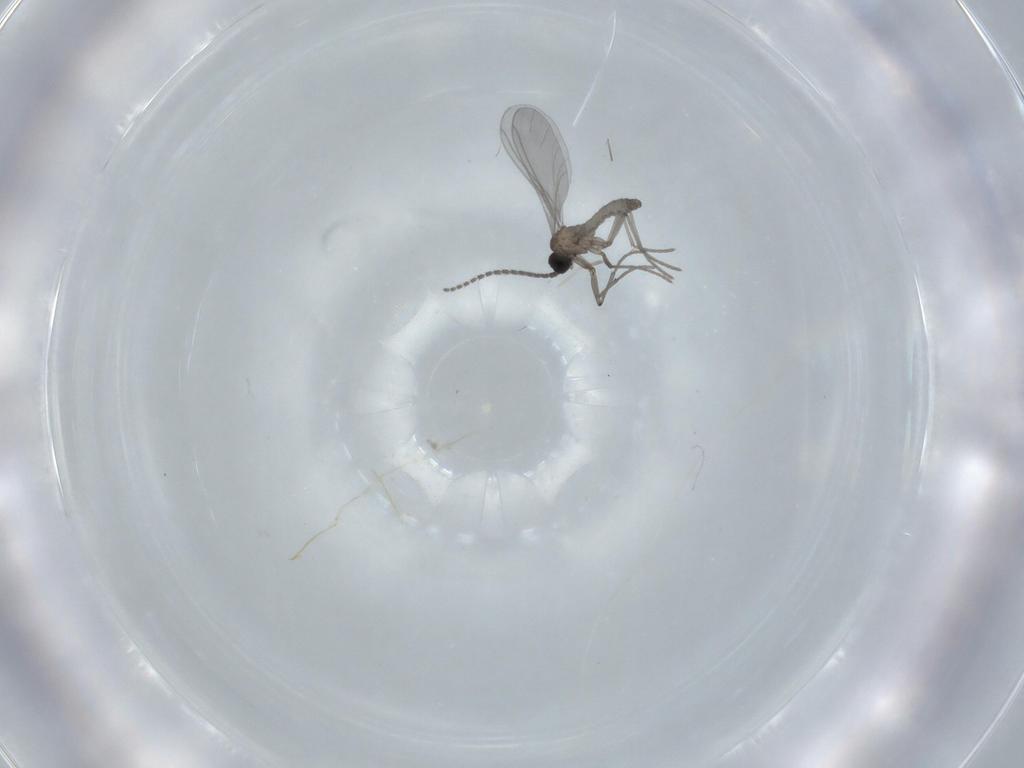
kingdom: Animalia
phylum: Arthropoda
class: Insecta
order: Diptera
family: Sciaridae
